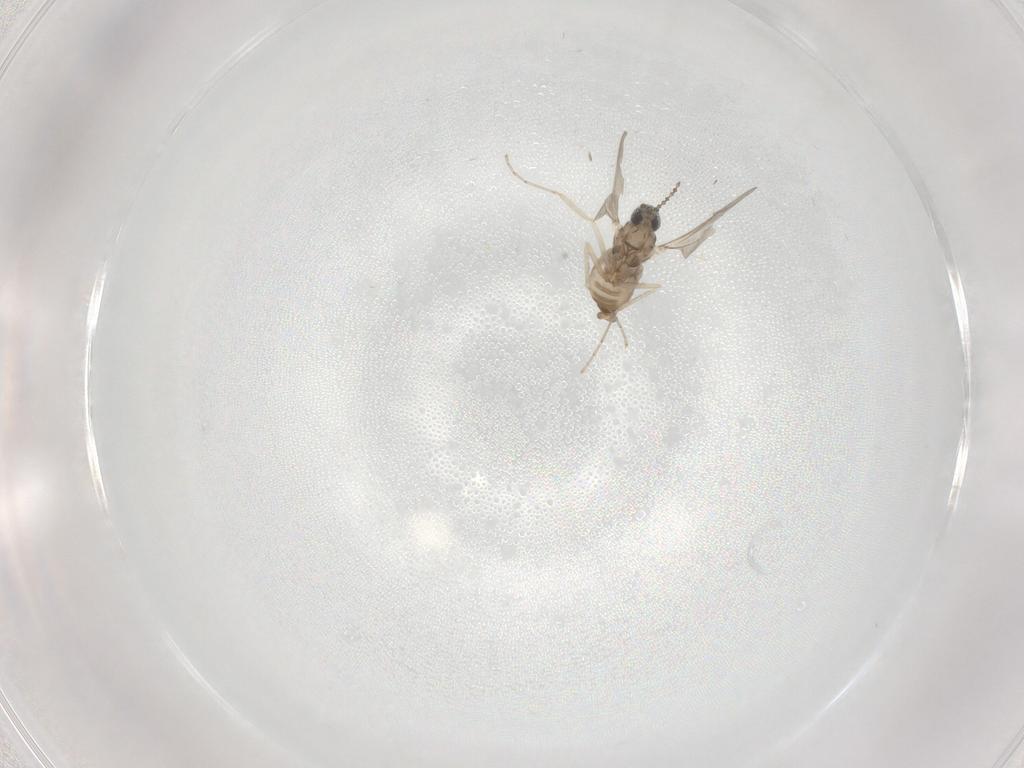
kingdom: Animalia
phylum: Arthropoda
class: Insecta
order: Diptera
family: Cecidomyiidae
